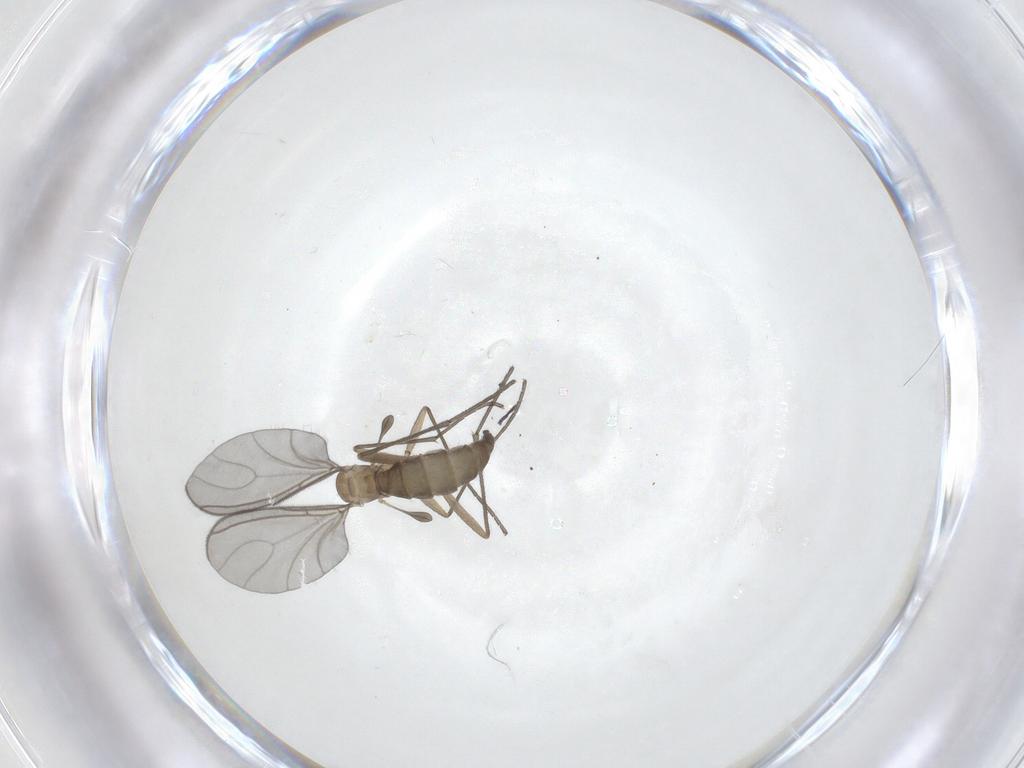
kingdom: Animalia
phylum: Arthropoda
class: Insecta
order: Diptera
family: Sciaridae
